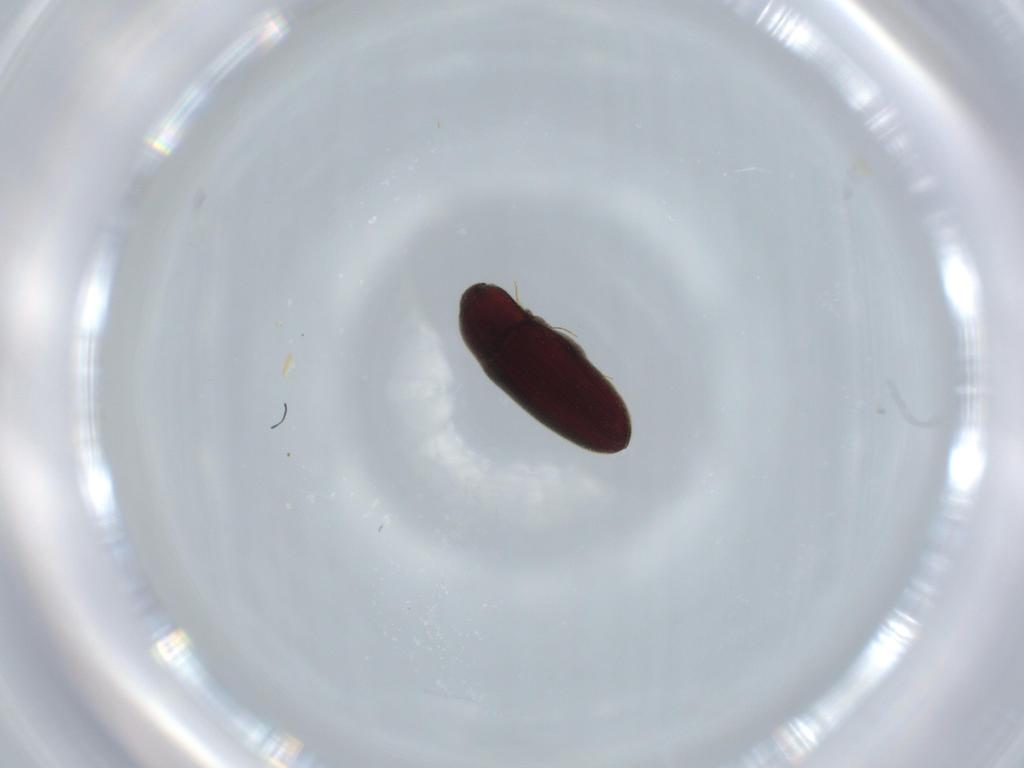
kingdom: Animalia
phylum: Arthropoda
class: Insecta
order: Coleoptera
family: Throscidae
